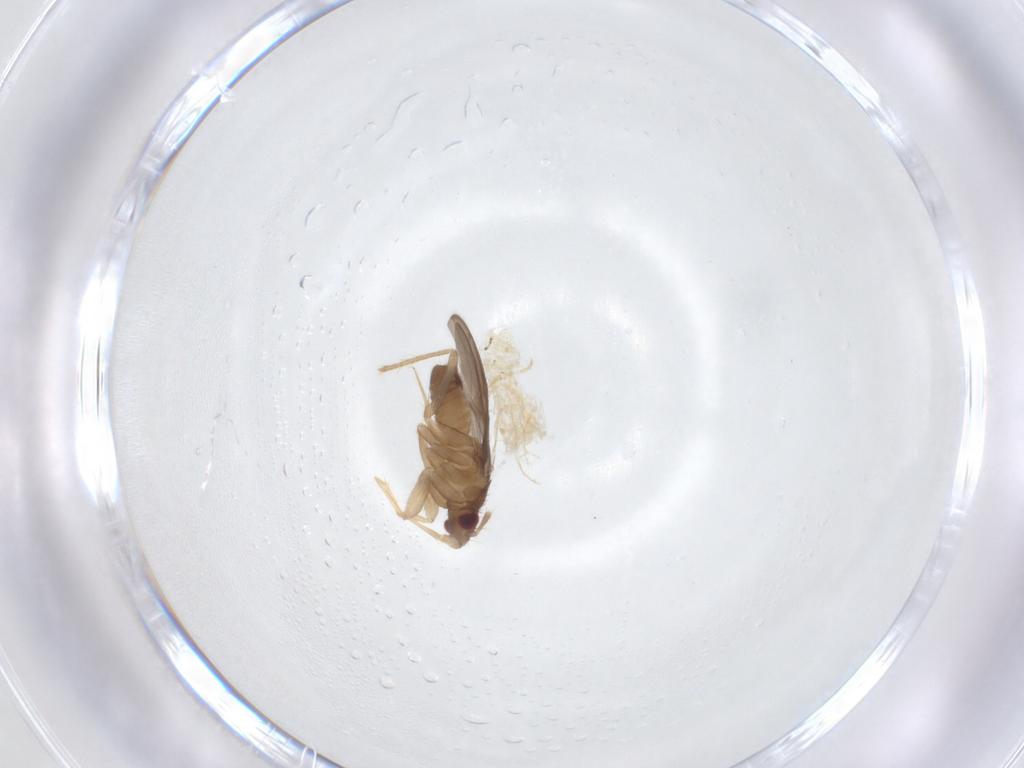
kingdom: Animalia
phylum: Arthropoda
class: Insecta
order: Hemiptera
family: Ceratocombidae
